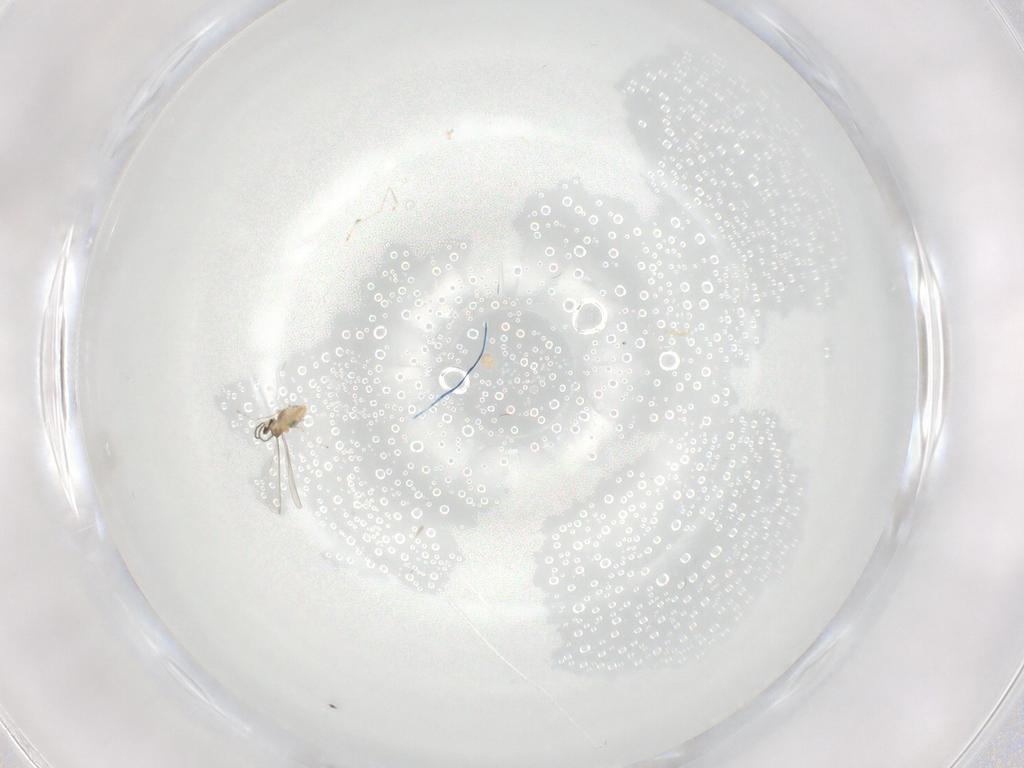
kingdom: Animalia
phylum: Arthropoda
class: Insecta
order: Diptera
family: Cecidomyiidae
